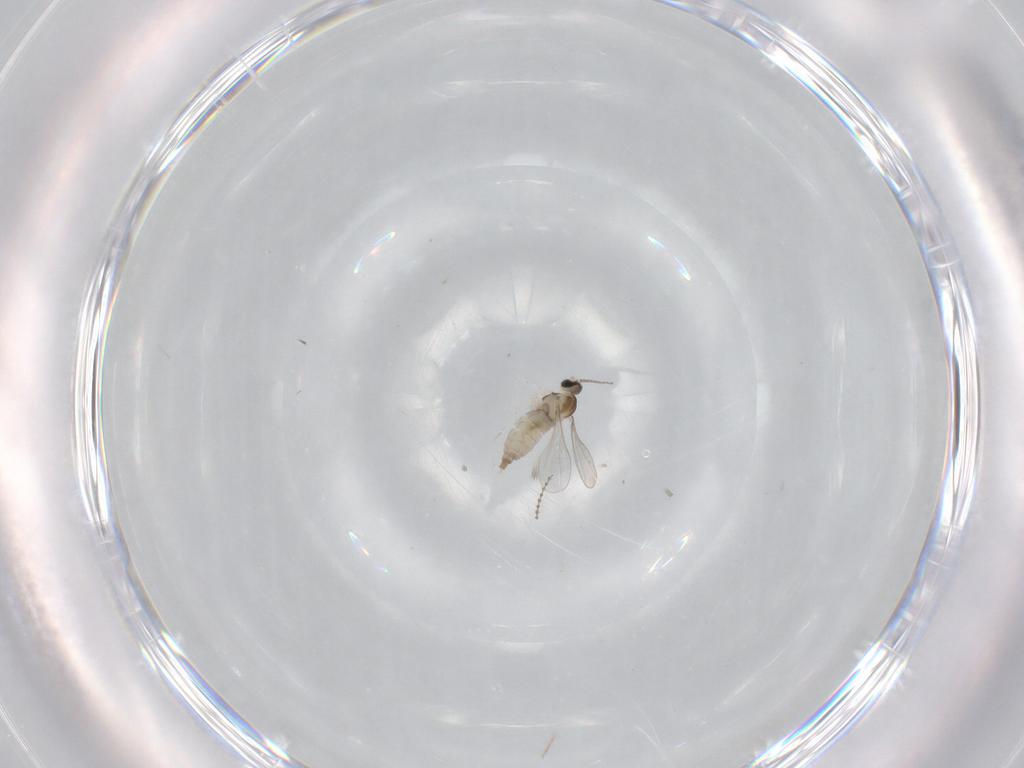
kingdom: Animalia
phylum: Arthropoda
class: Insecta
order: Diptera
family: Cecidomyiidae
